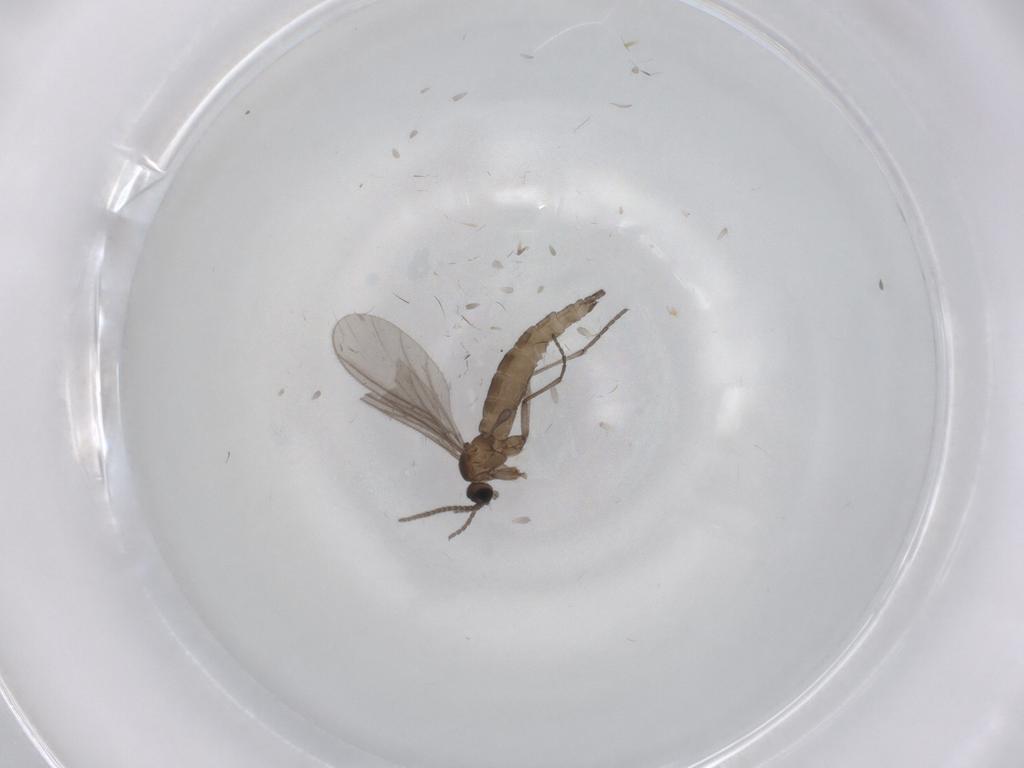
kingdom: Animalia
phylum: Arthropoda
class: Insecta
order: Diptera
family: Sciaridae
